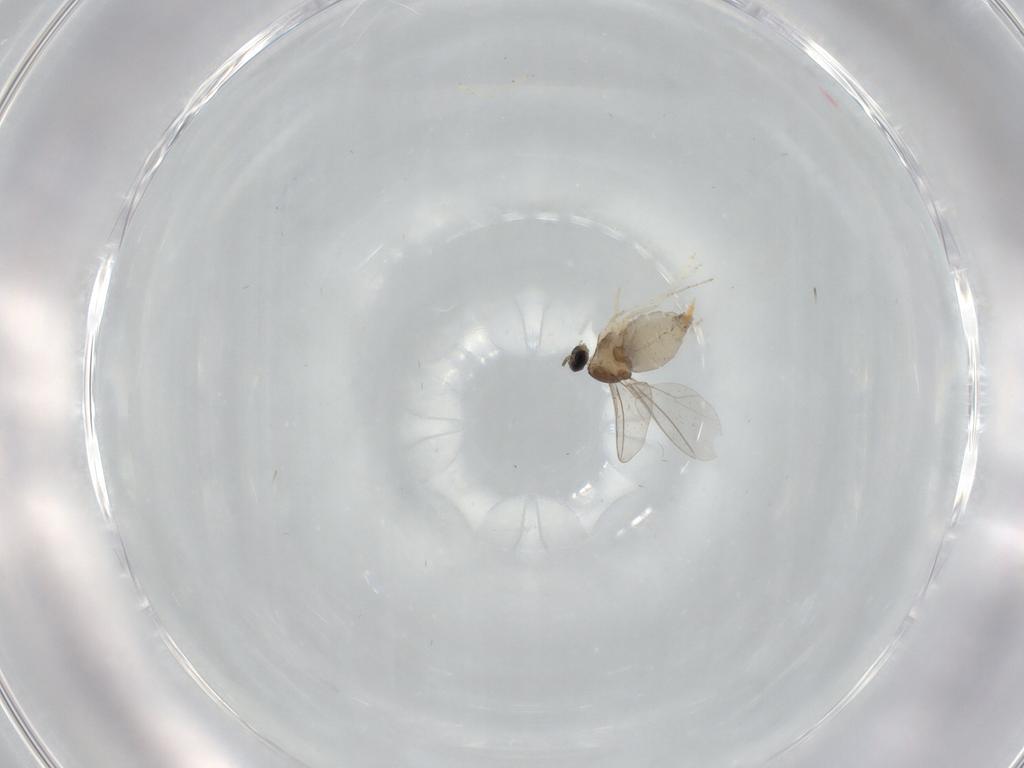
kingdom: Animalia
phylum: Arthropoda
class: Insecta
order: Diptera
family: Cecidomyiidae
